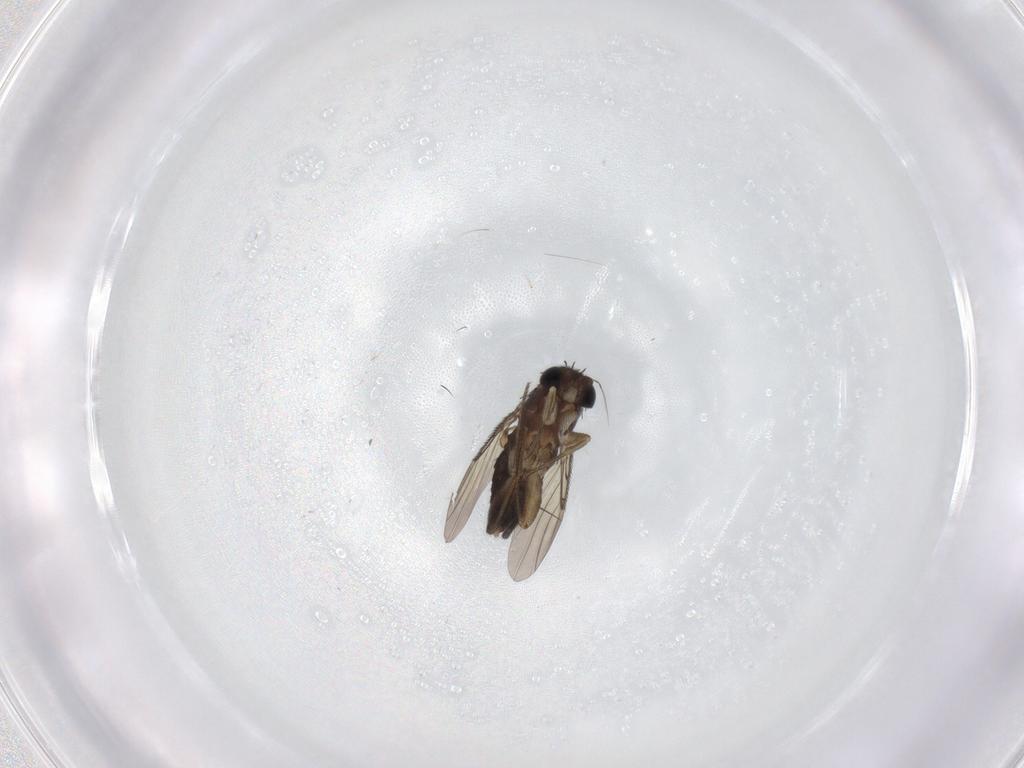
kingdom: Animalia
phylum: Arthropoda
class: Insecta
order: Diptera
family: Phoridae
